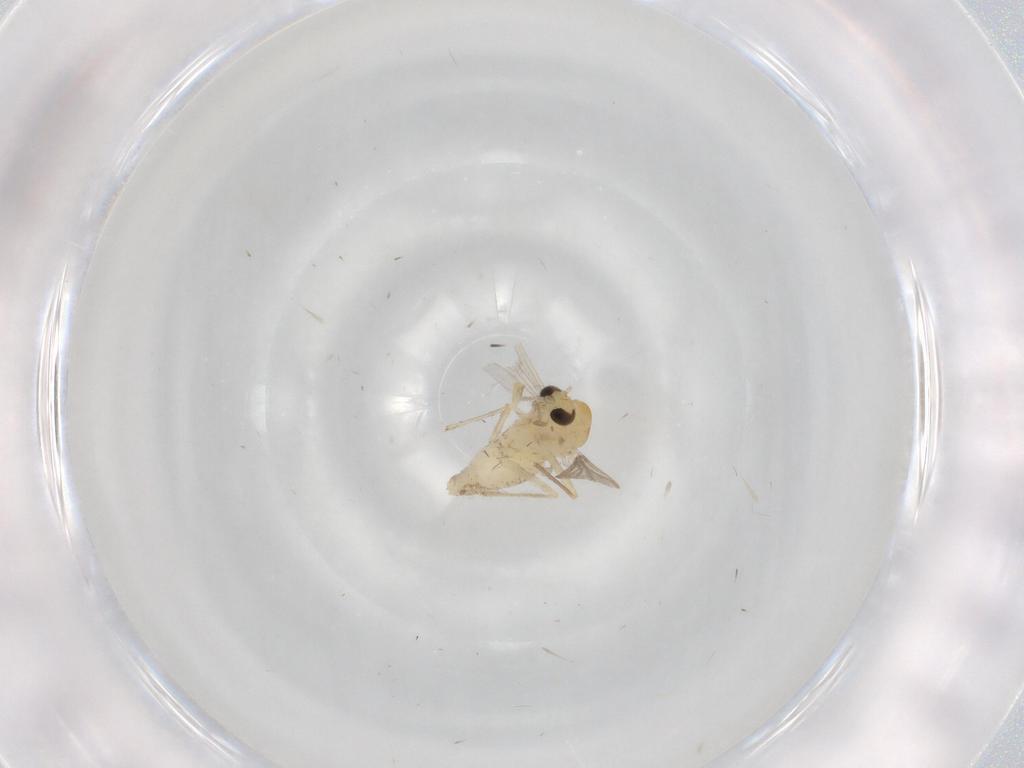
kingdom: Animalia
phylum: Arthropoda
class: Insecta
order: Diptera
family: Chironomidae
